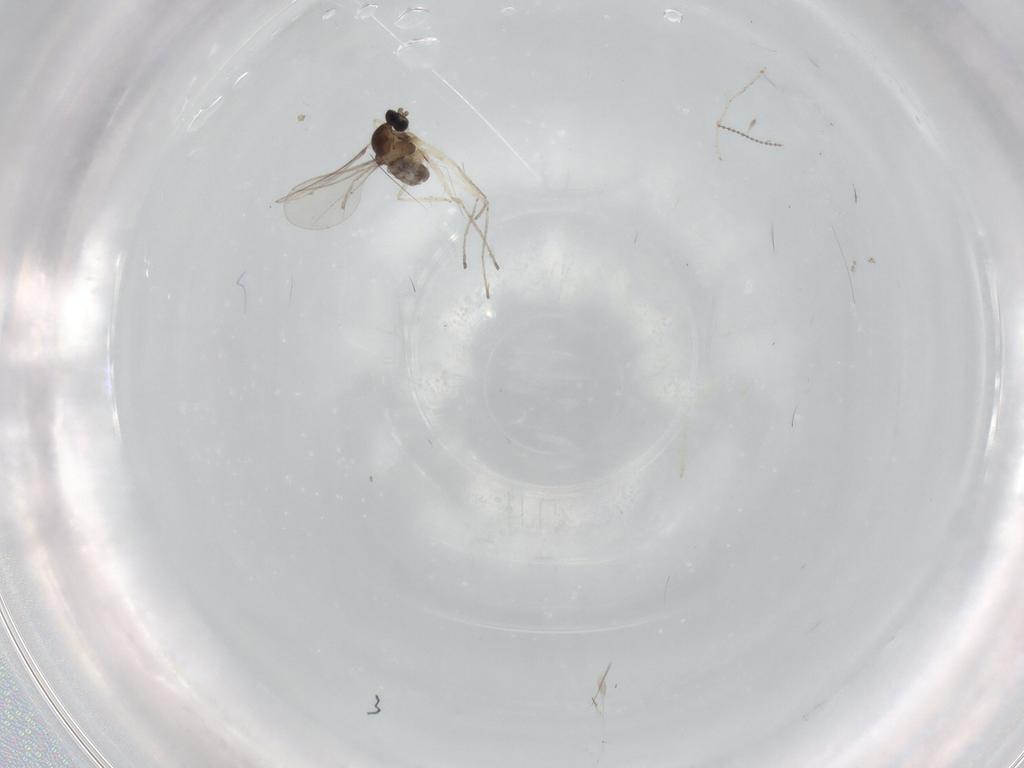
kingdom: Animalia
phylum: Arthropoda
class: Insecta
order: Diptera
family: Cecidomyiidae
